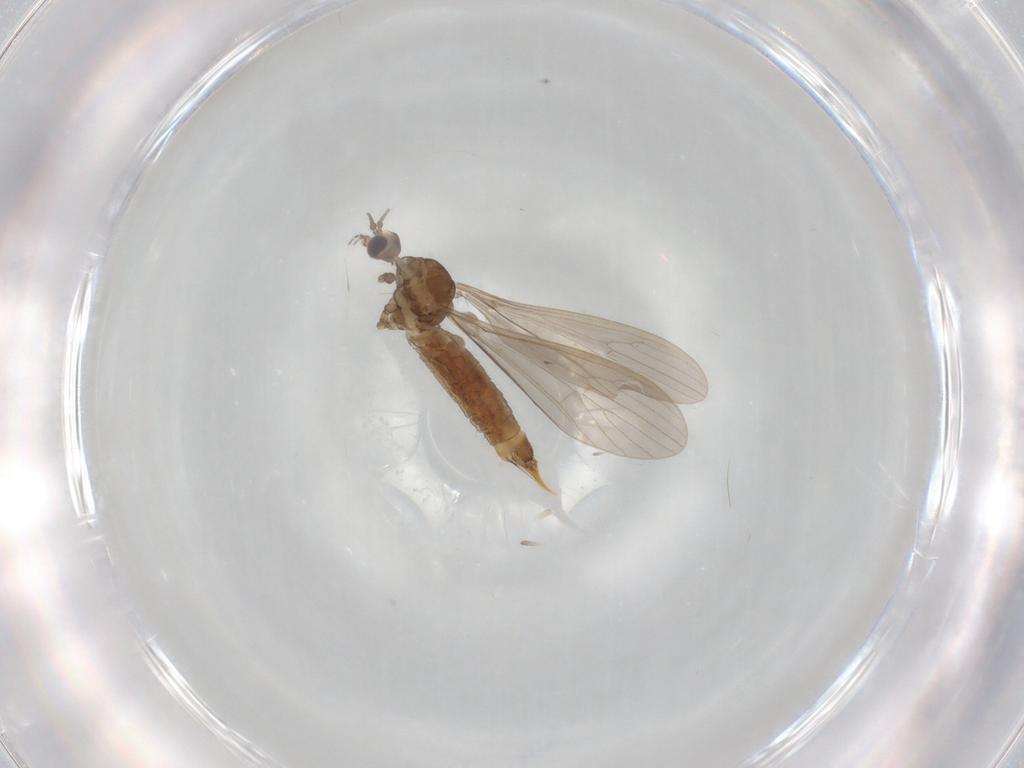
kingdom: Animalia
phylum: Arthropoda
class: Insecta
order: Diptera
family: Limoniidae
